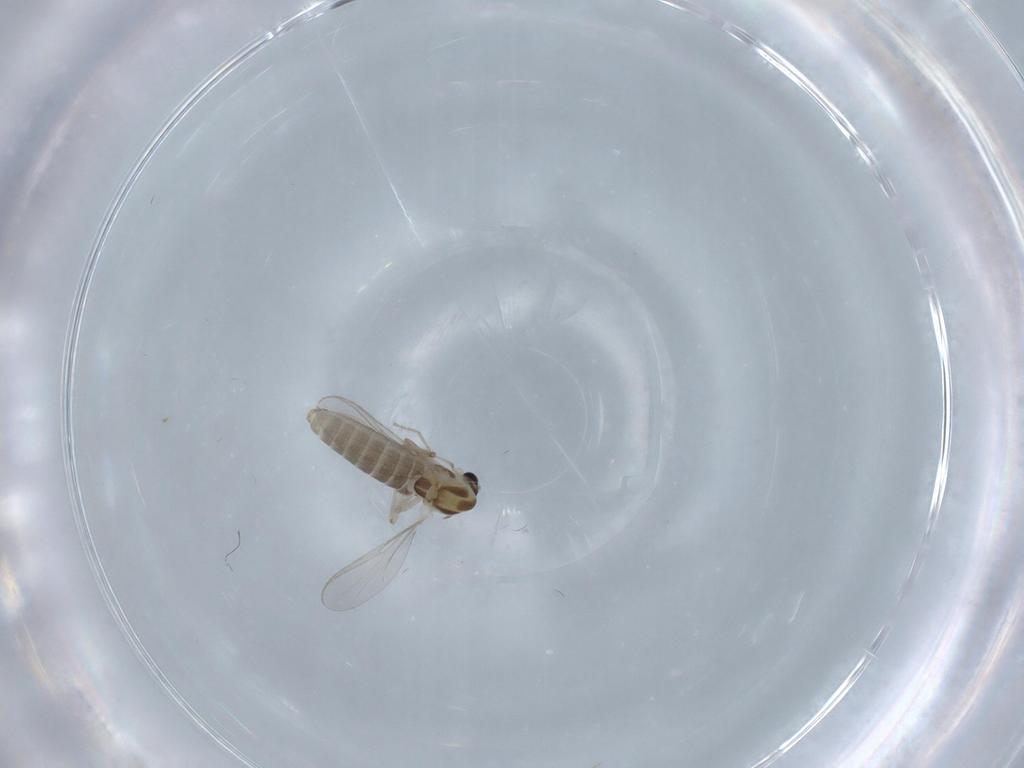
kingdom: Animalia
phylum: Arthropoda
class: Insecta
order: Diptera
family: Chironomidae
